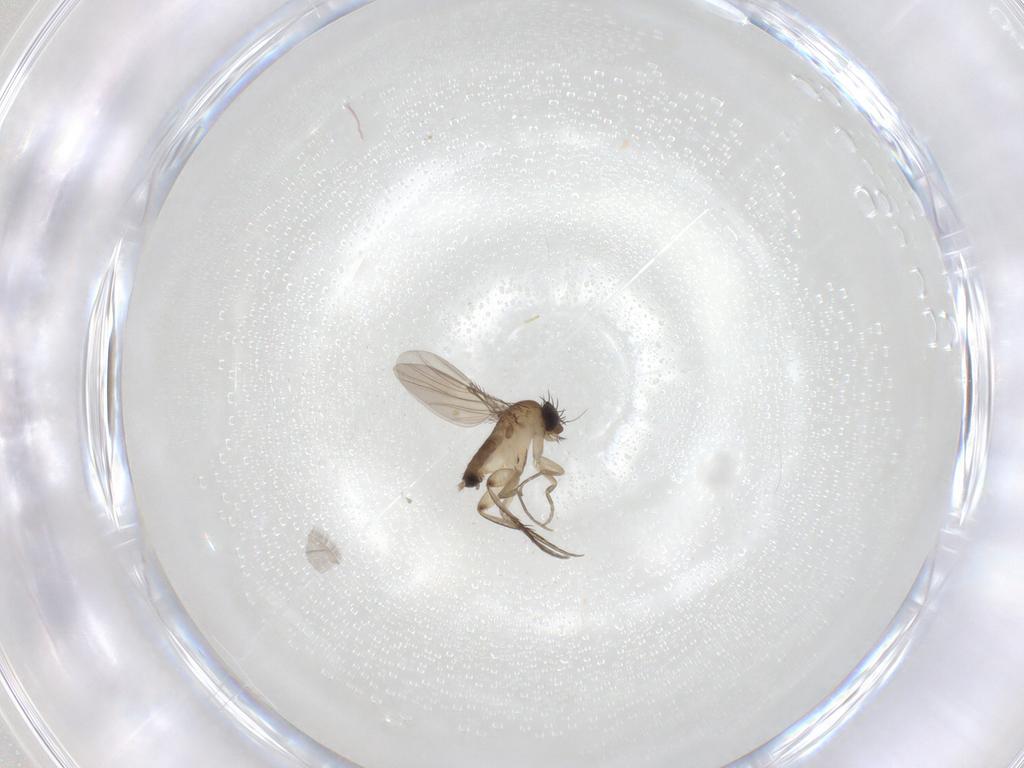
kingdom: Animalia
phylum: Arthropoda
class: Insecta
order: Diptera
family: Phoridae
